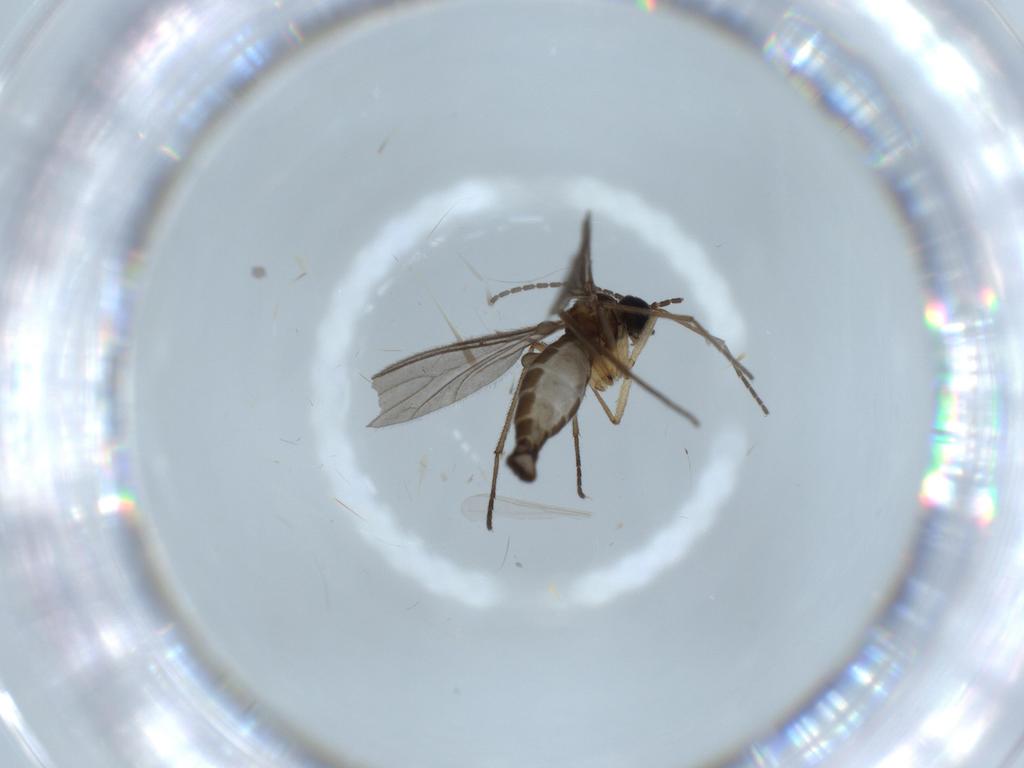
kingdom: Animalia
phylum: Arthropoda
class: Insecta
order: Diptera
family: Sciaridae
